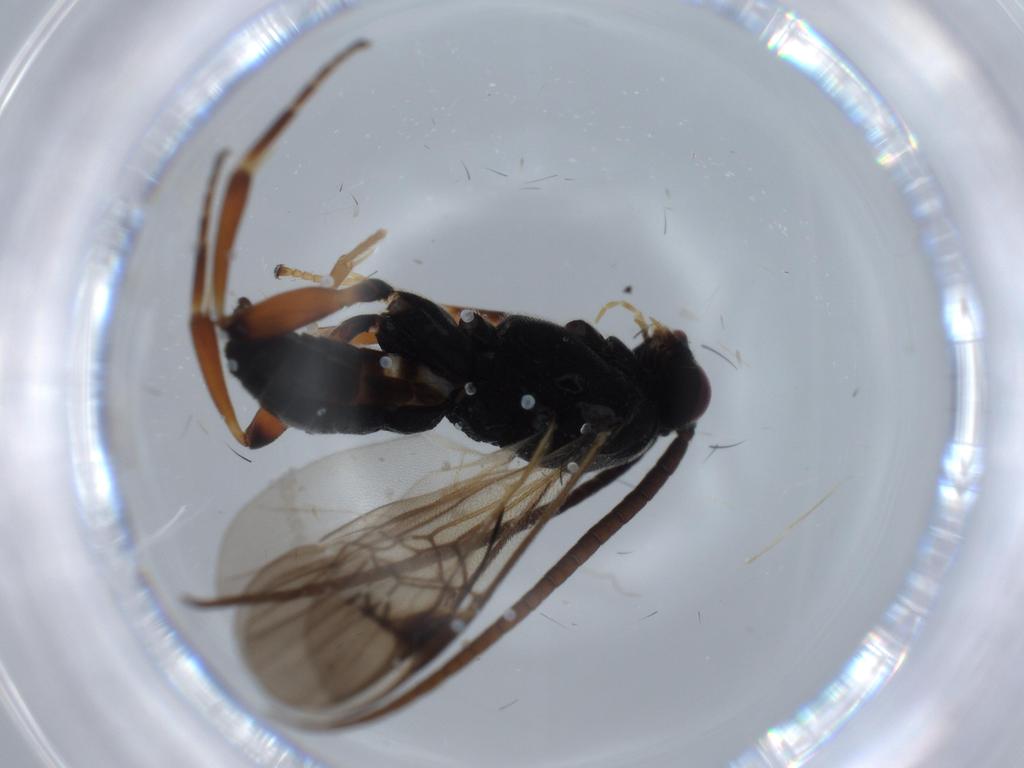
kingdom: Animalia
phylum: Arthropoda
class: Insecta
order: Hymenoptera
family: Braconidae
